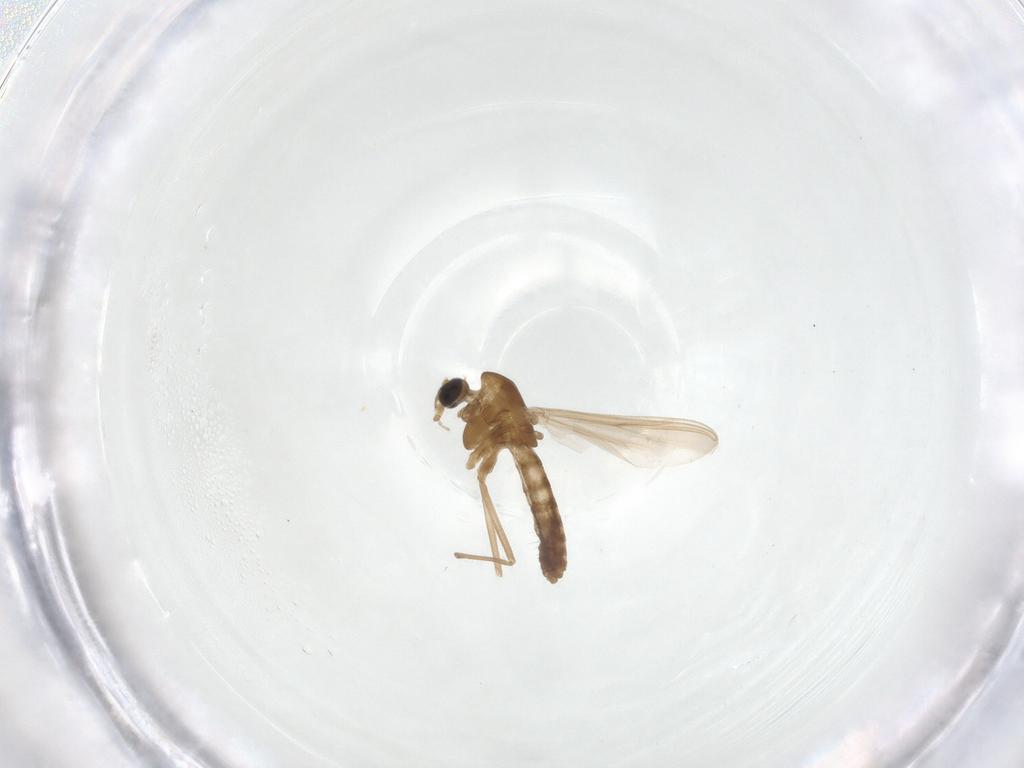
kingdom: Animalia
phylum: Arthropoda
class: Insecta
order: Diptera
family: Chironomidae
